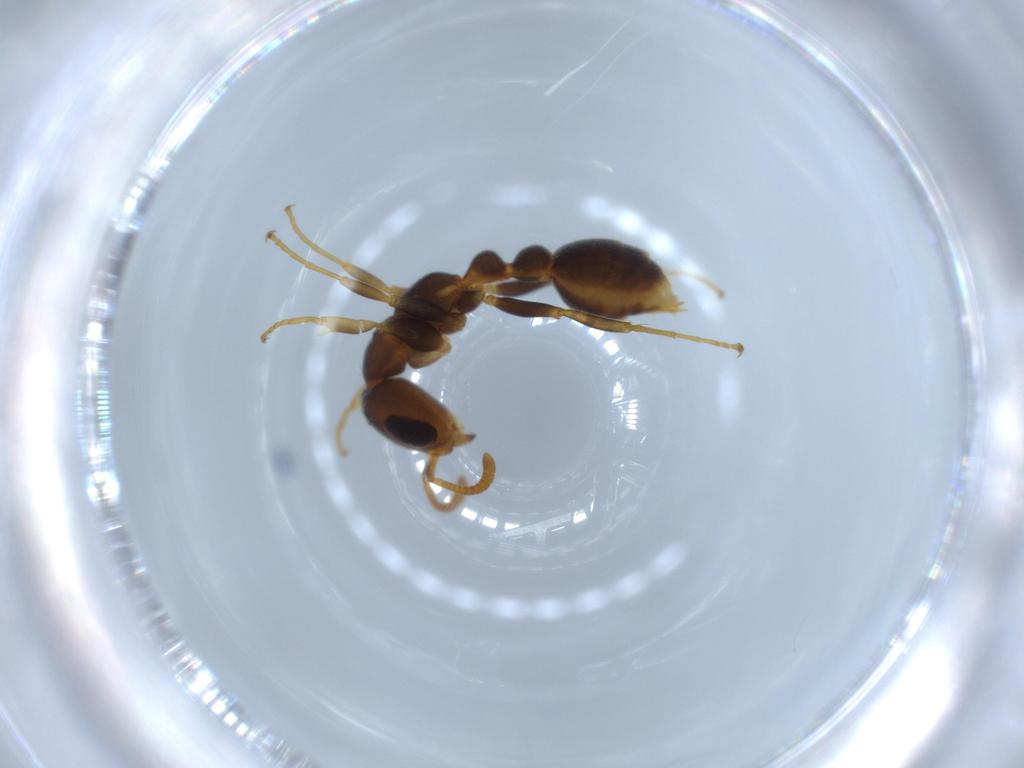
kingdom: Animalia
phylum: Arthropoda
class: Insecta
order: Hymenoptera
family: Formicidae
